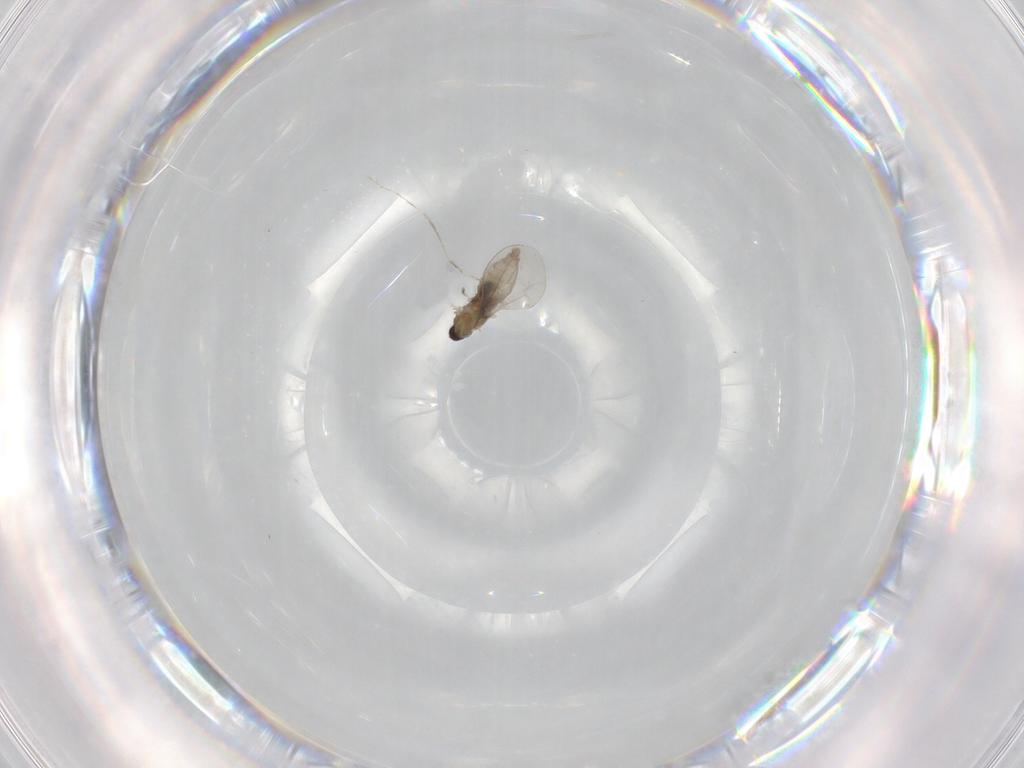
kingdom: Animalia
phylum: Arthropoda
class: Insecta
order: Diptera
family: Cecidomyiidae
